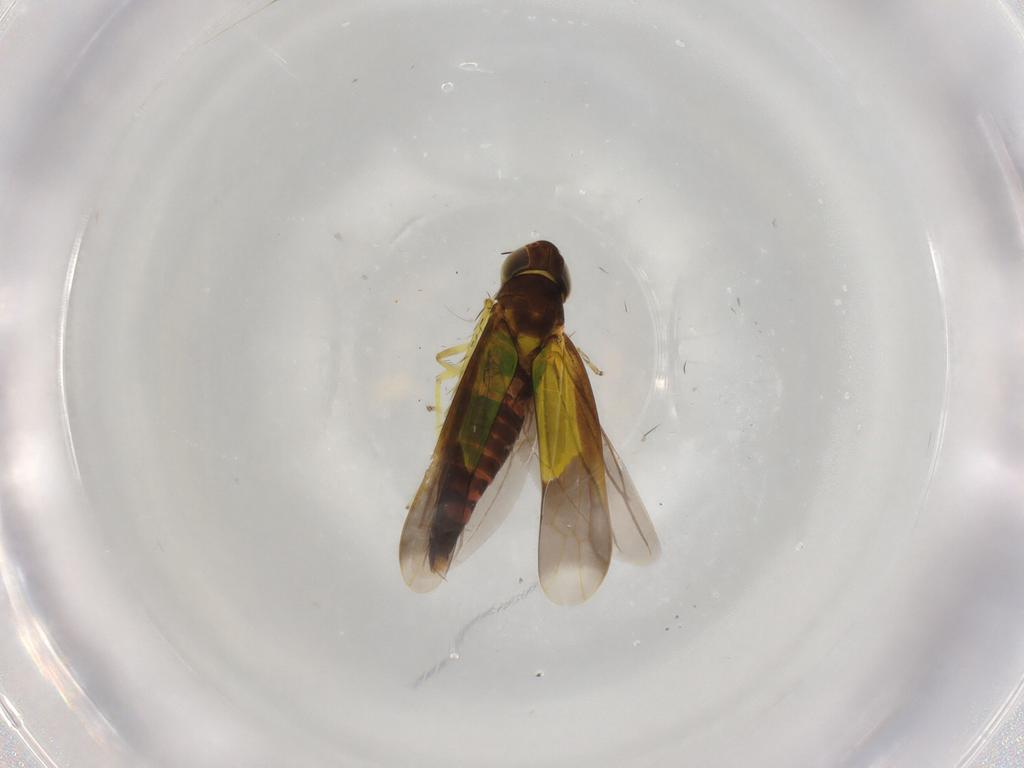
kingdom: Animalia
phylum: Arthropoda
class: Insecta
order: Hemiptera
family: Cicadellidae
